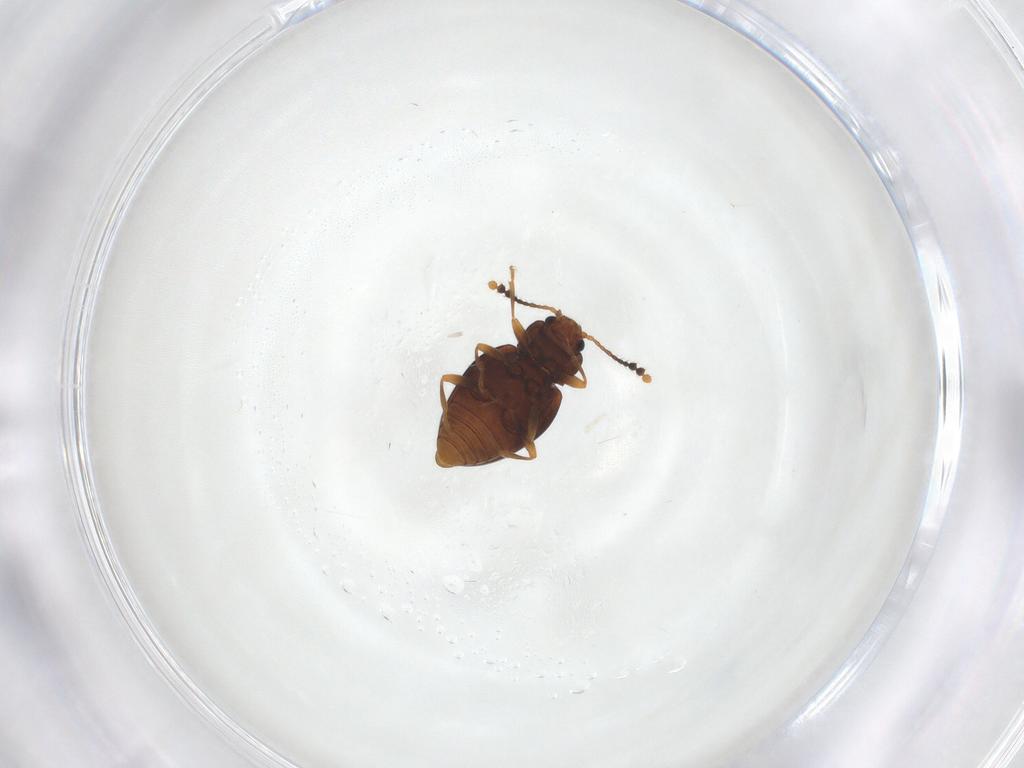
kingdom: Animalia
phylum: Arthropoda
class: Insecta
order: Coleoptera
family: Erotylidae
